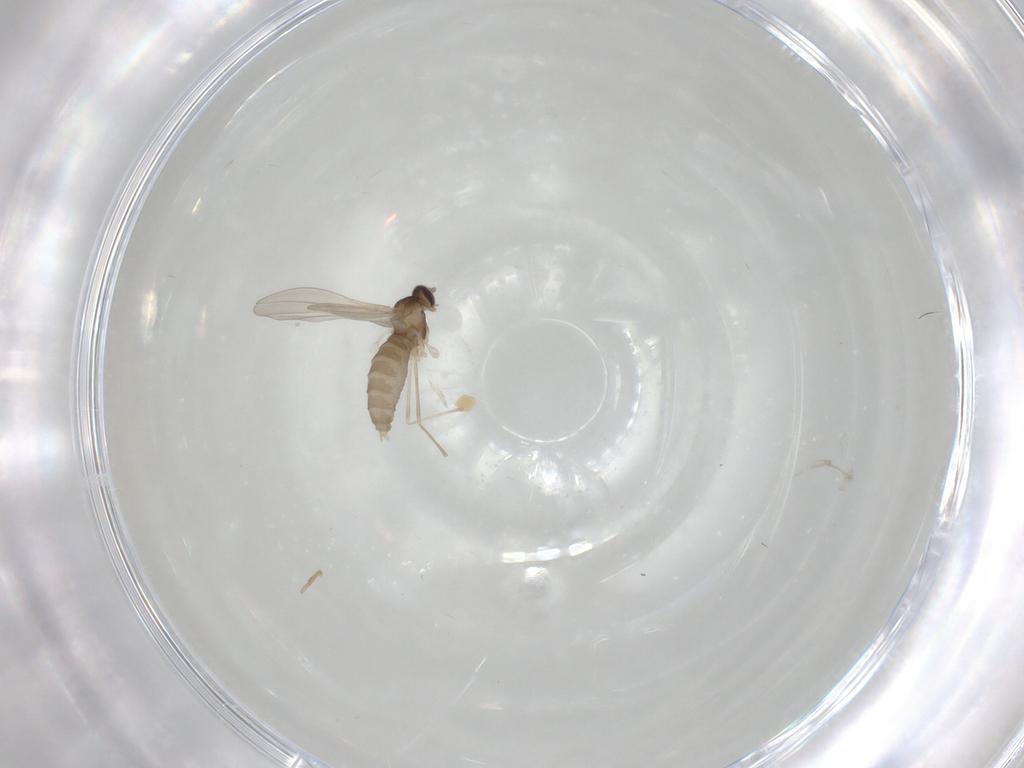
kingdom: Animalia
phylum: Arthropoda
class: Insecta
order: Diptera
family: Cecidomyiidae
